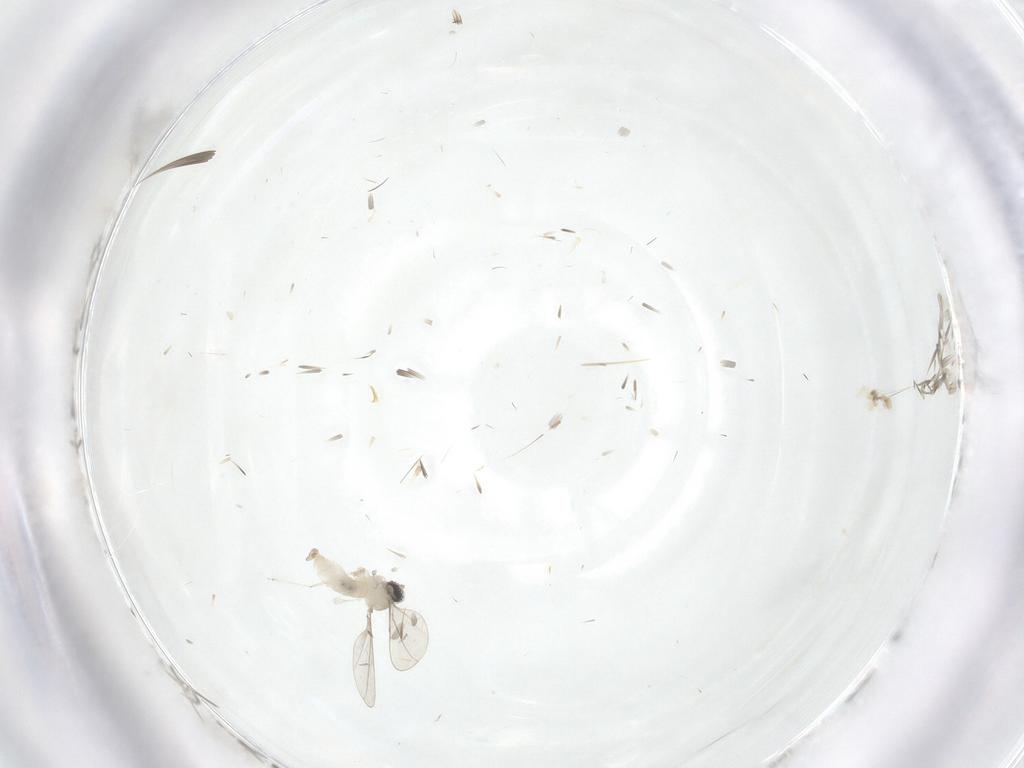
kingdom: Animalia
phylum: Arthropoda
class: Insecta
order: Diptera
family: Cecidomyiidae
